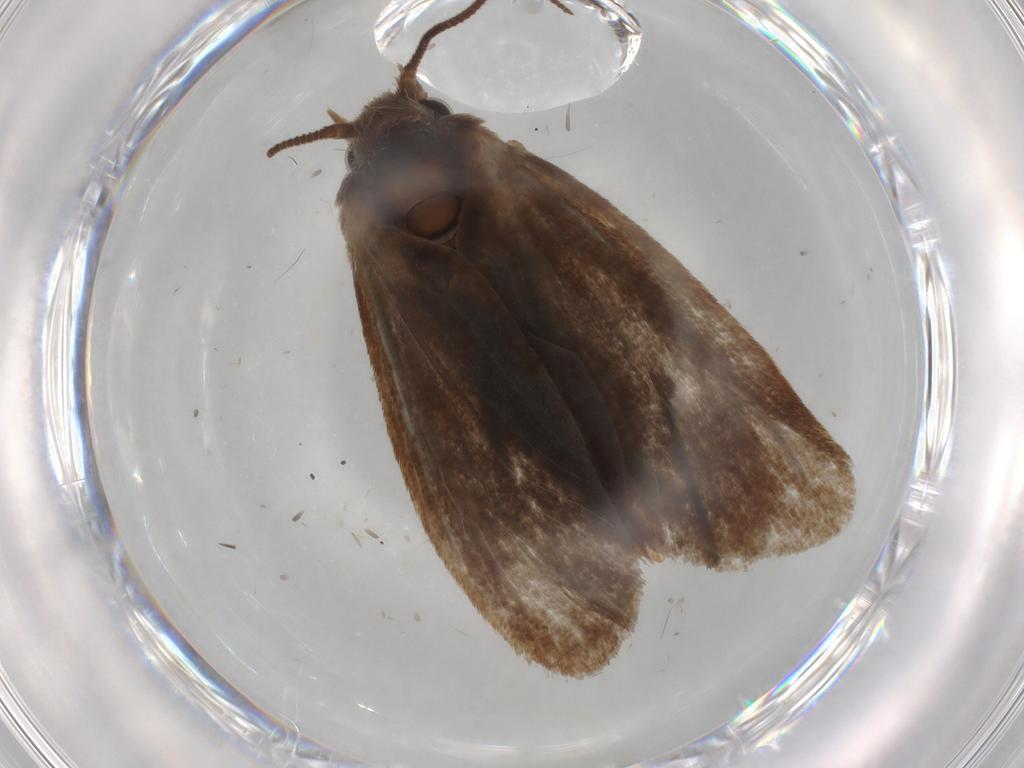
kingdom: Animalia
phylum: Arthropoda
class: Insecta
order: Lepidoptera
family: Tineidae
